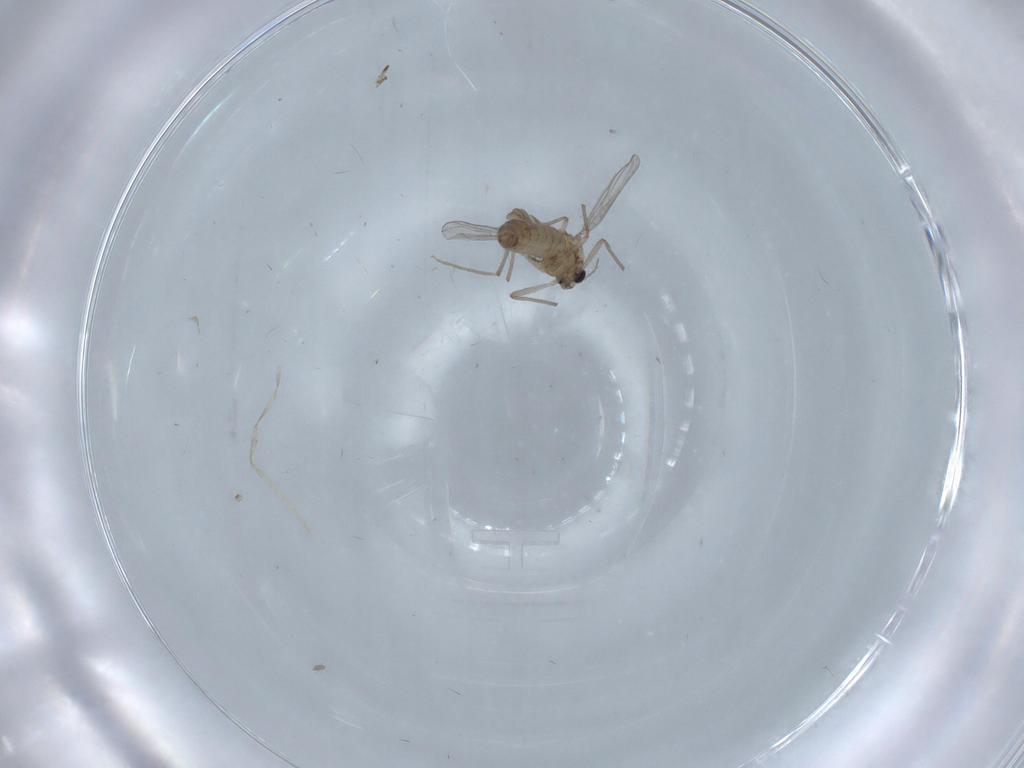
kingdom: Animalia
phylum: Arthropoda
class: Insecta
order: Diptera
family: Chironomidae
